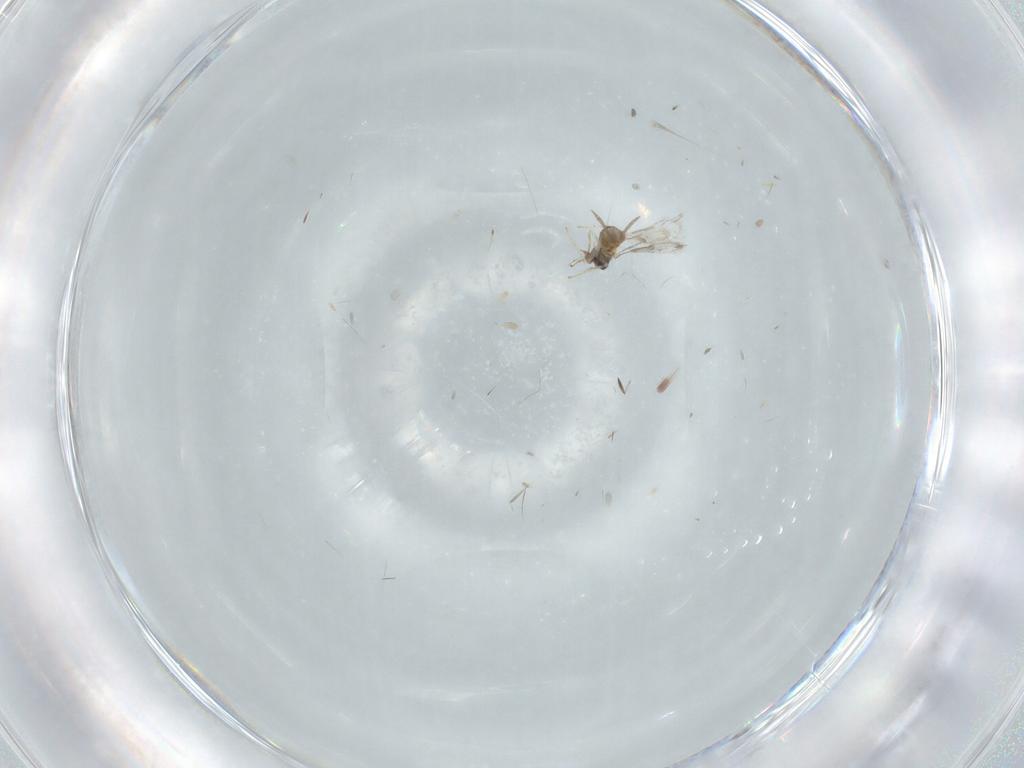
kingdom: Animalia
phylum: Arthropoda
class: Insecta
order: Hymenoptera
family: Aphelinidae
